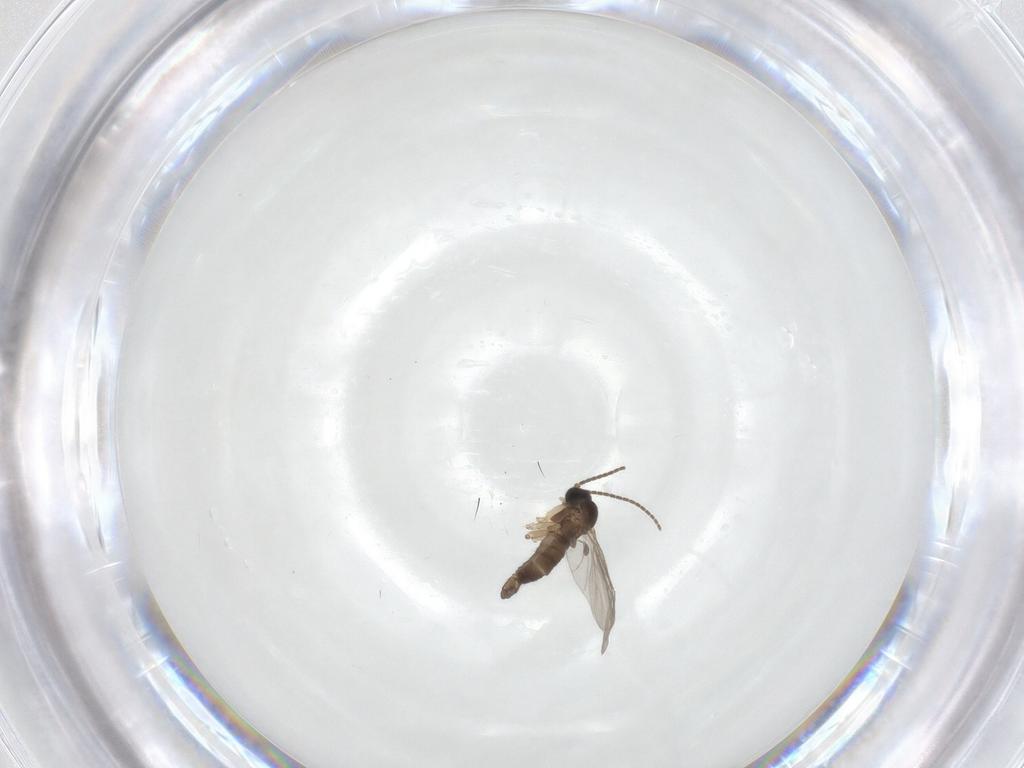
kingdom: Animalia
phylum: Arthropoda
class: Insecta
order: Diptera
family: Sciaridae
